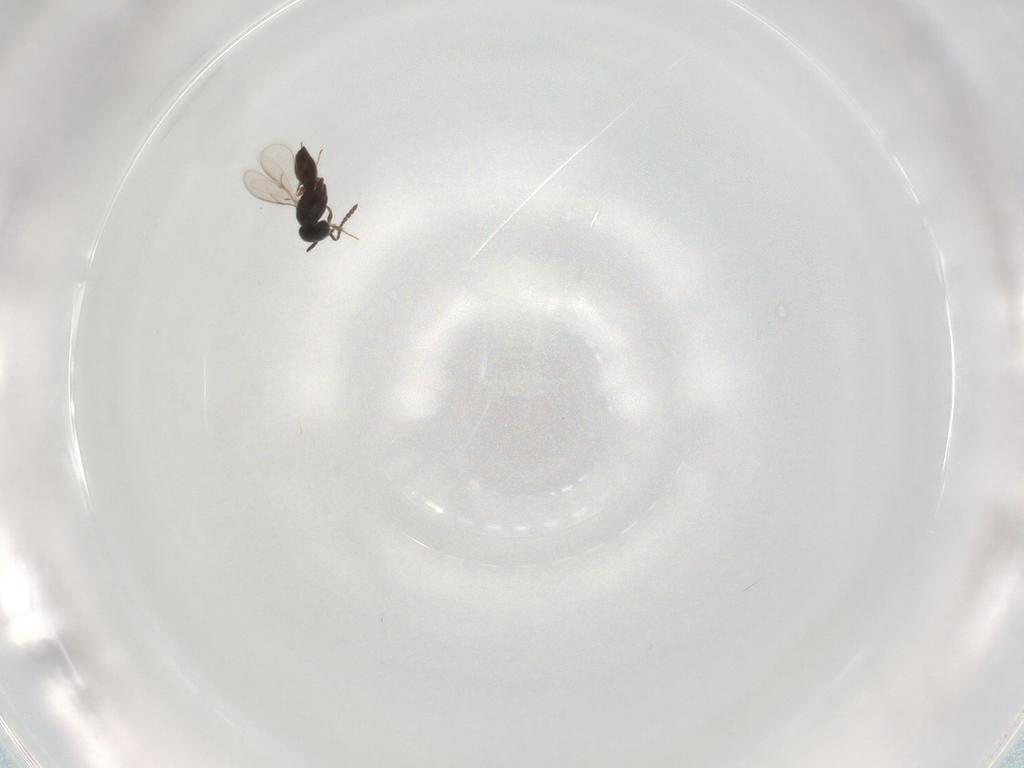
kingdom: Animalia
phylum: Arthropoda
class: Insecta
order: Hymenoptera
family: Scelionidae
